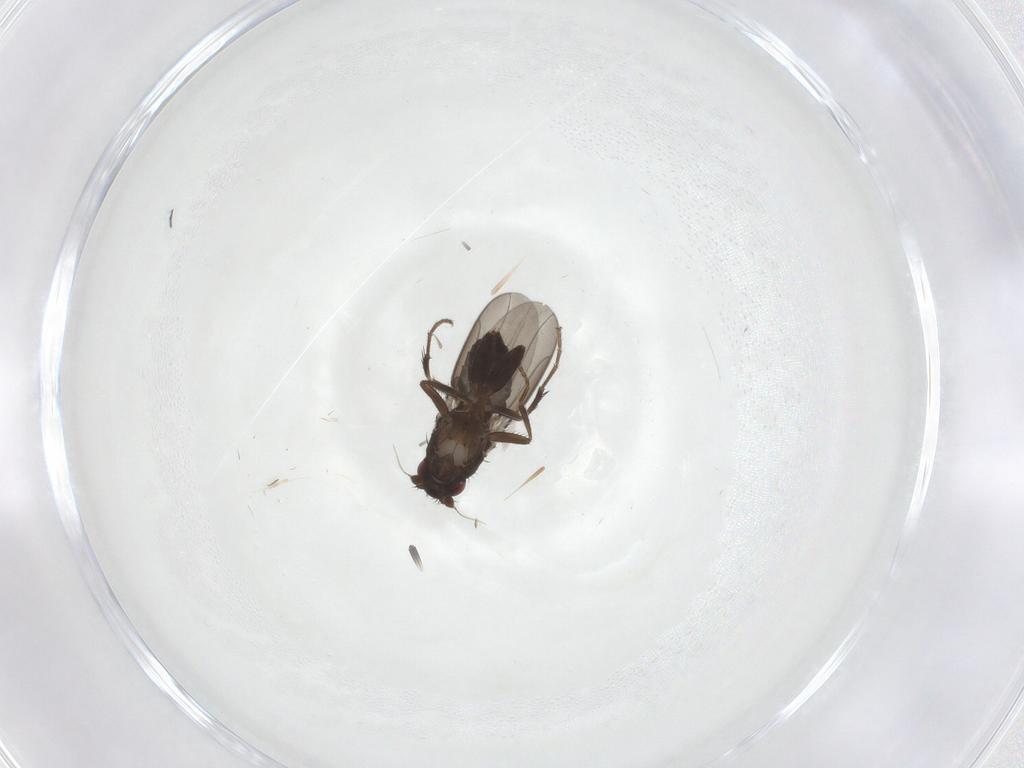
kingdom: Animalia
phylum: Arthropoda
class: Insecta
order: Diptera
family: Sphaeroceridae
